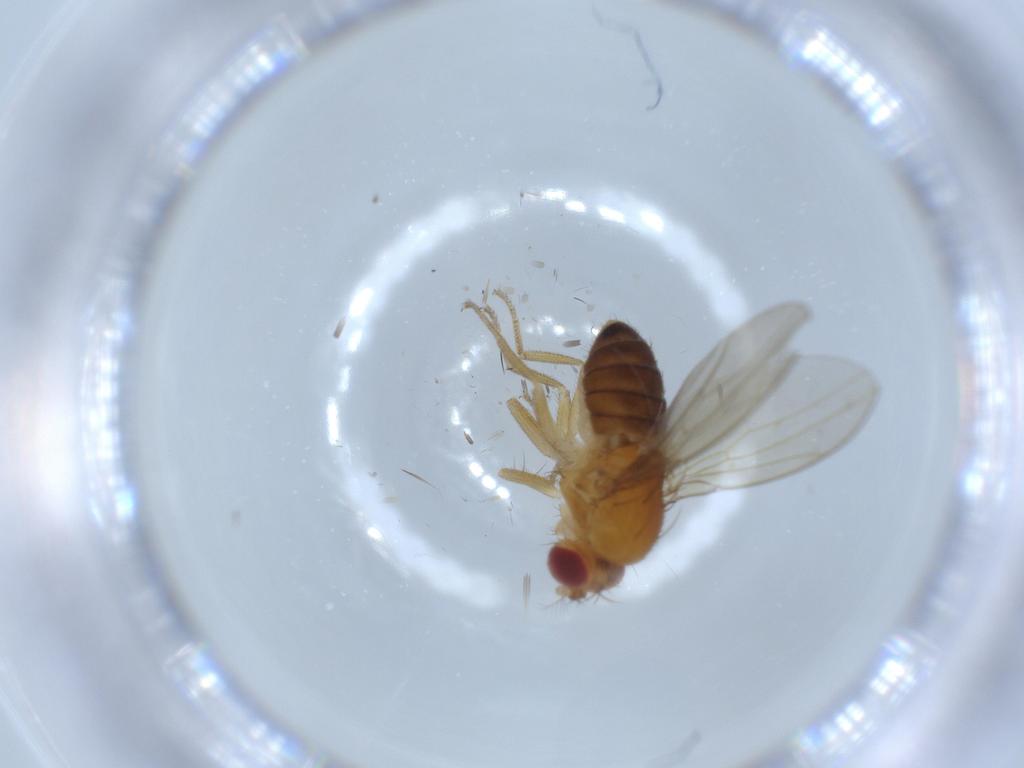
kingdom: Animalia
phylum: Arthropoda
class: Insecta
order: Diptera
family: Drosophilidae
